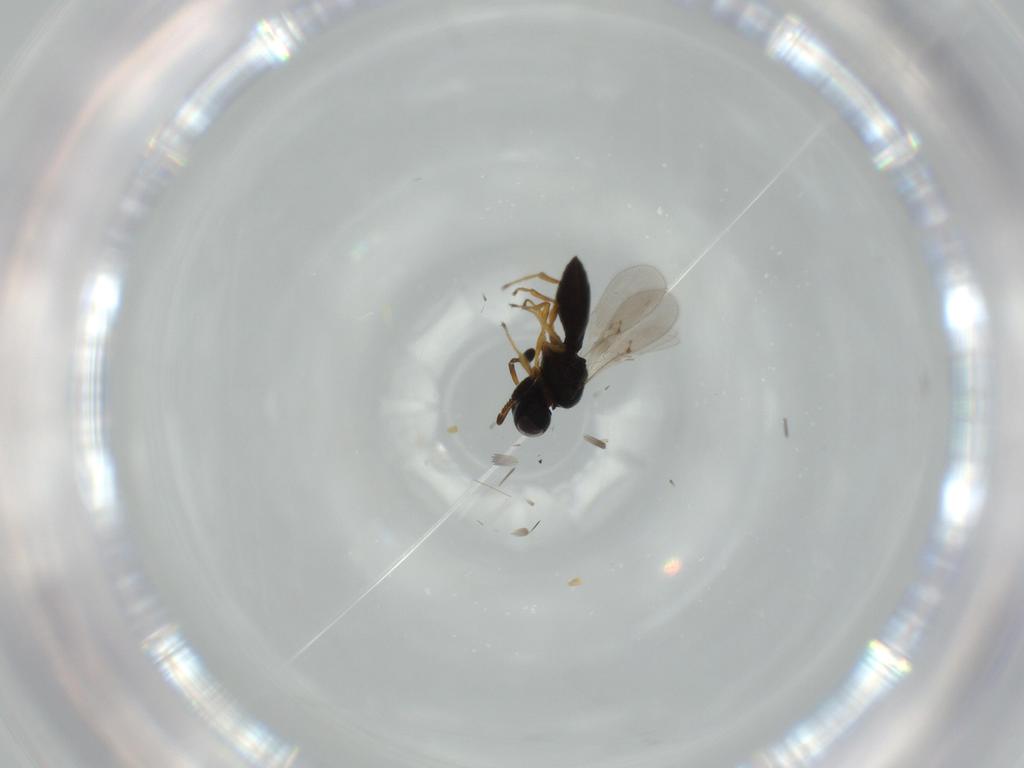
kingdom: Animalia
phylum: Arthropoda
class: Insecta
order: Hymenoptera
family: Scelionidae
